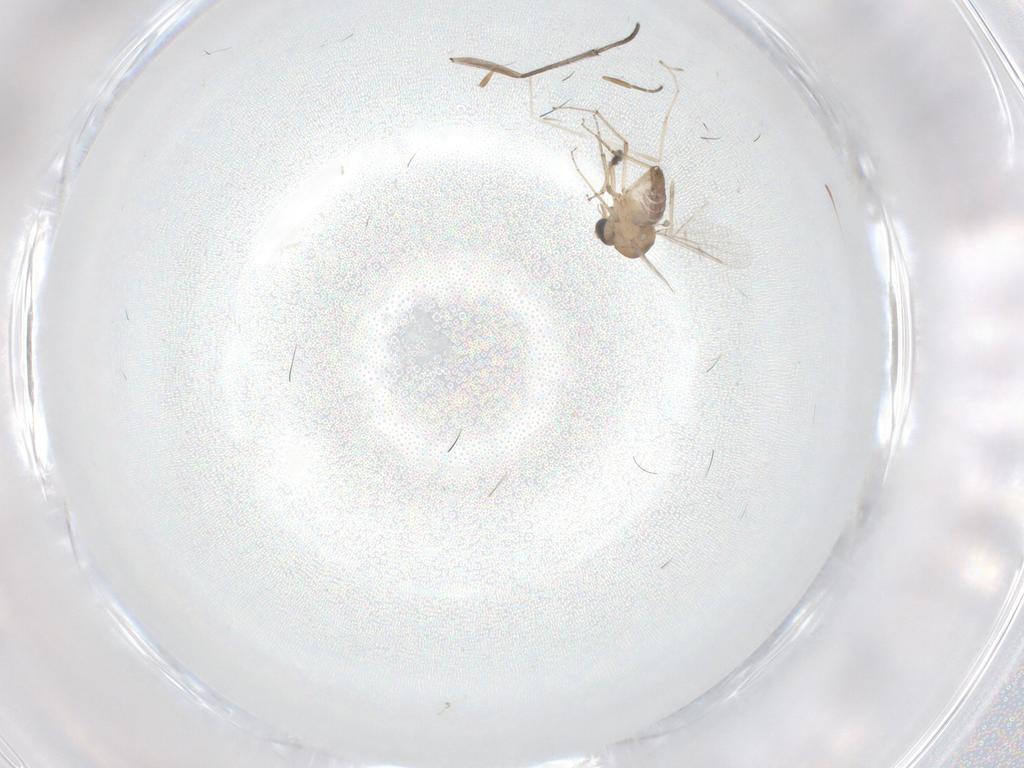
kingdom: Animalia
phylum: Arthropoda
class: Insecta
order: Diptera
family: Limoniidae
